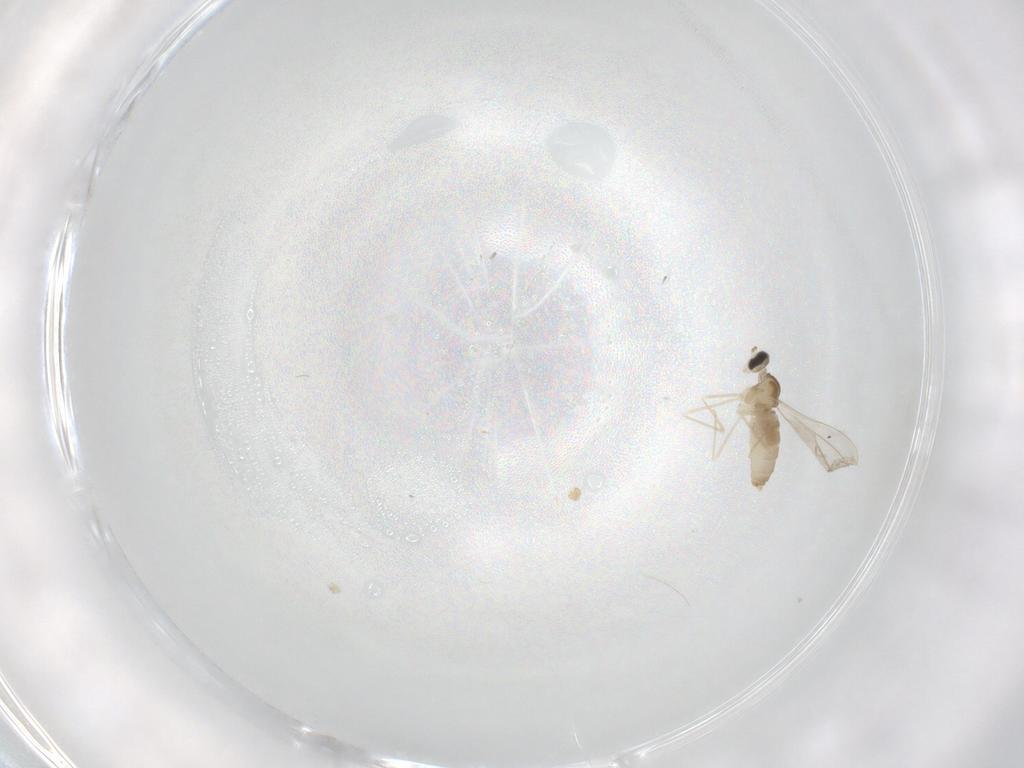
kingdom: Animalia
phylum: Arthropoda
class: Insecta
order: Diptera
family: Cecidomyiidae
